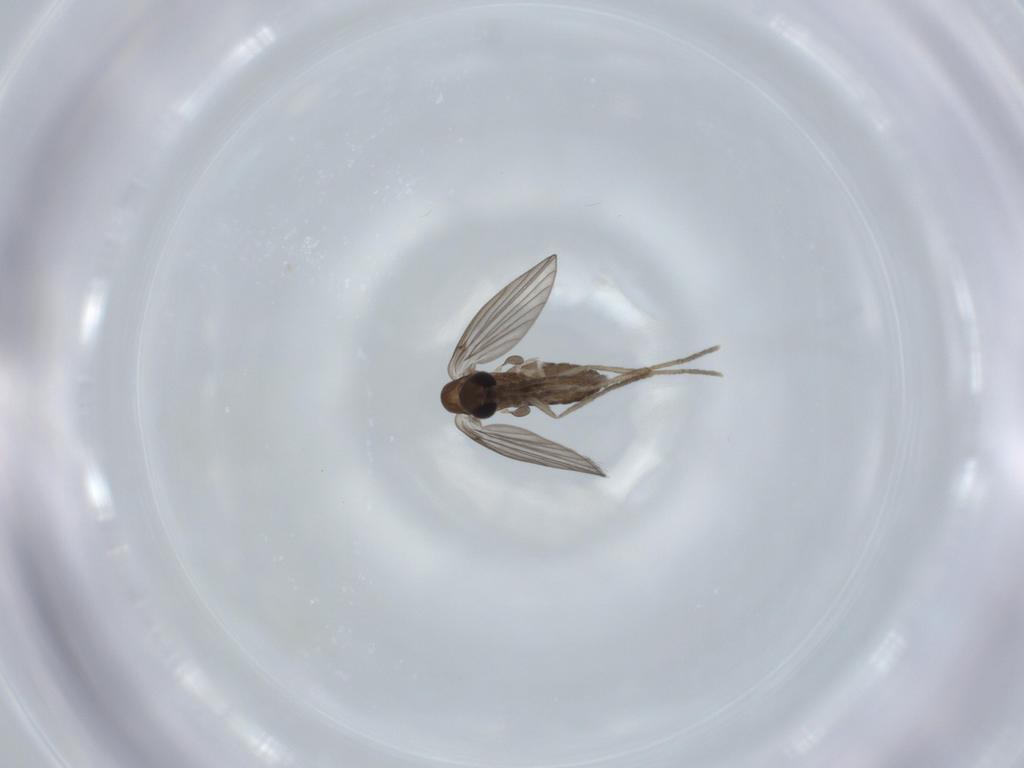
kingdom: Animalia
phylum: Arthropoda
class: Insecta
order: Diptera
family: Psychodidae
